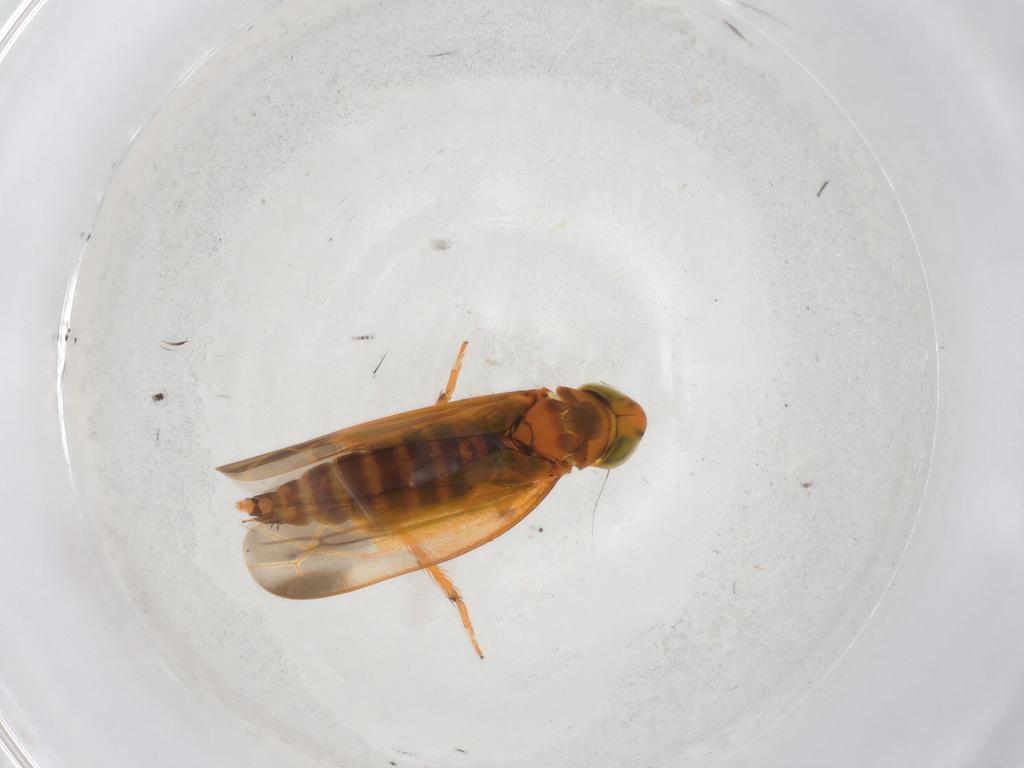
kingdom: Animalia
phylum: Arthropoda
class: Insecta
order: Hemiptera
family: Cicadellidae
